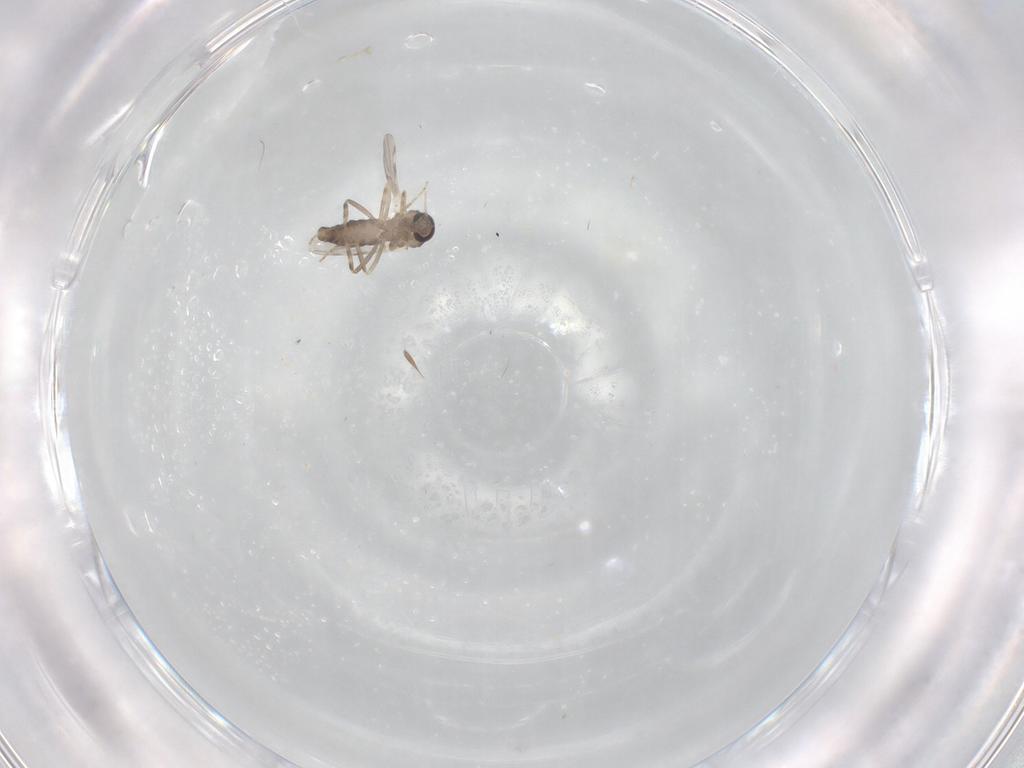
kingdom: Animalia
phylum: Arthropoda
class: Insecta
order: Diptera
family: Ceratopogonidae
